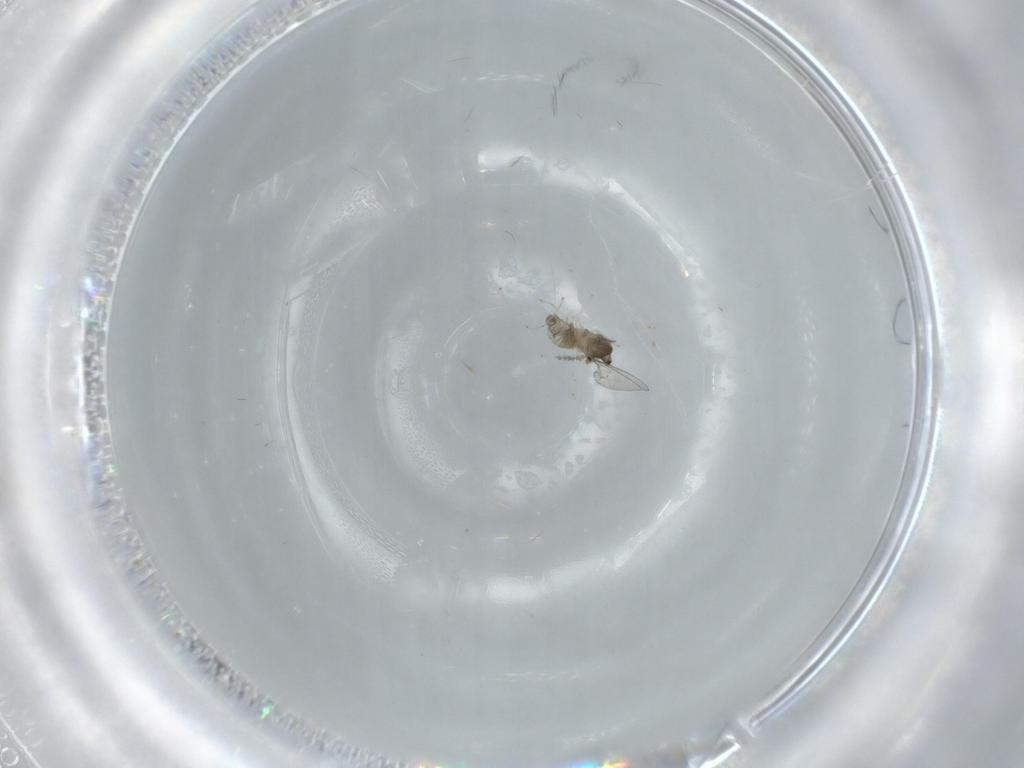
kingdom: Animalia
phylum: Arthropoda
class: Insecta
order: Diptera
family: Cecidomyiidae
